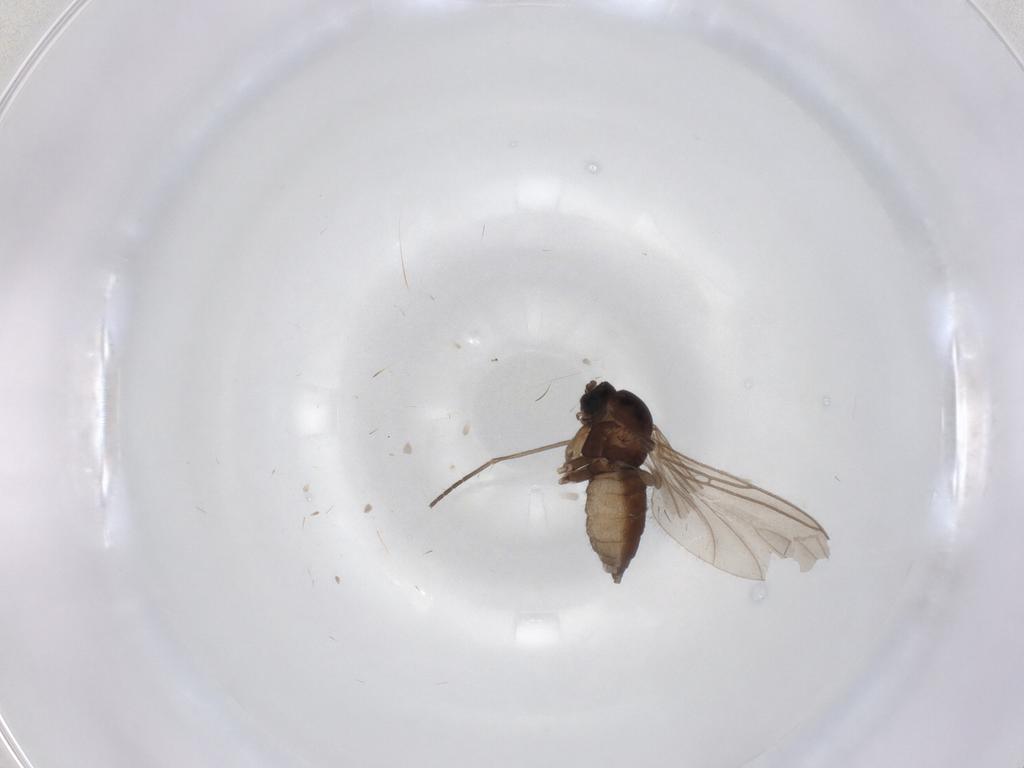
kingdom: Animalia
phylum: Arthropoda
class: Insecta
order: Diptera
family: Sciaridae
